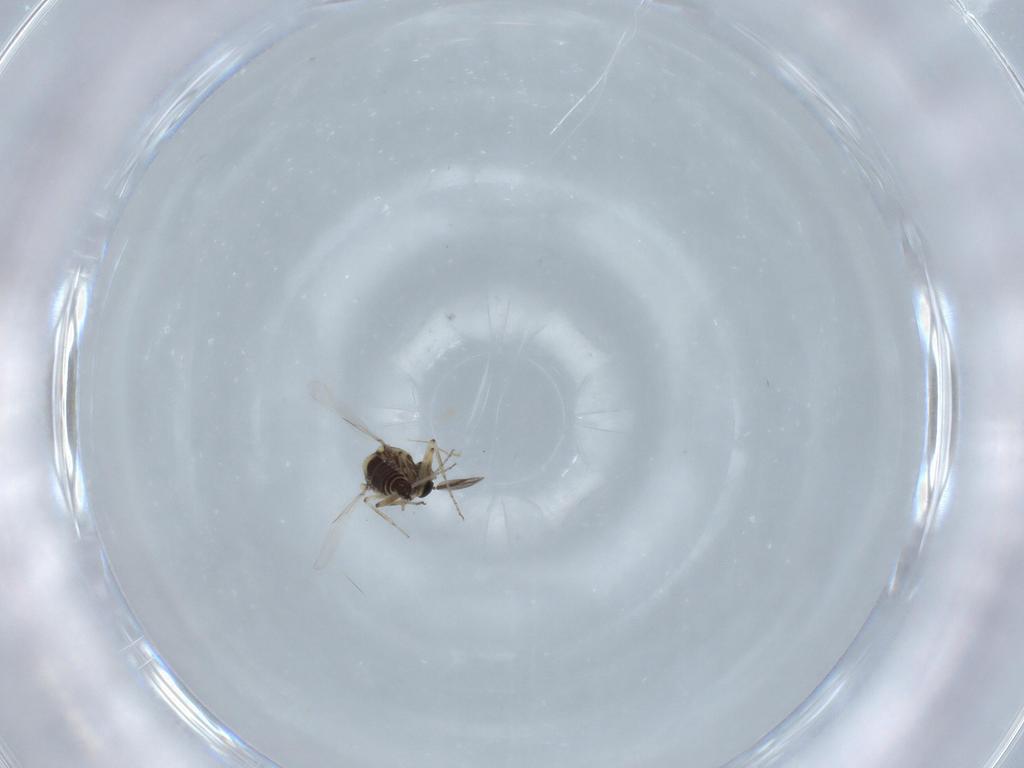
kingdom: Animalia
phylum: Arthropoda
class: Insecta
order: Diptera
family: Ceratopogonidae
